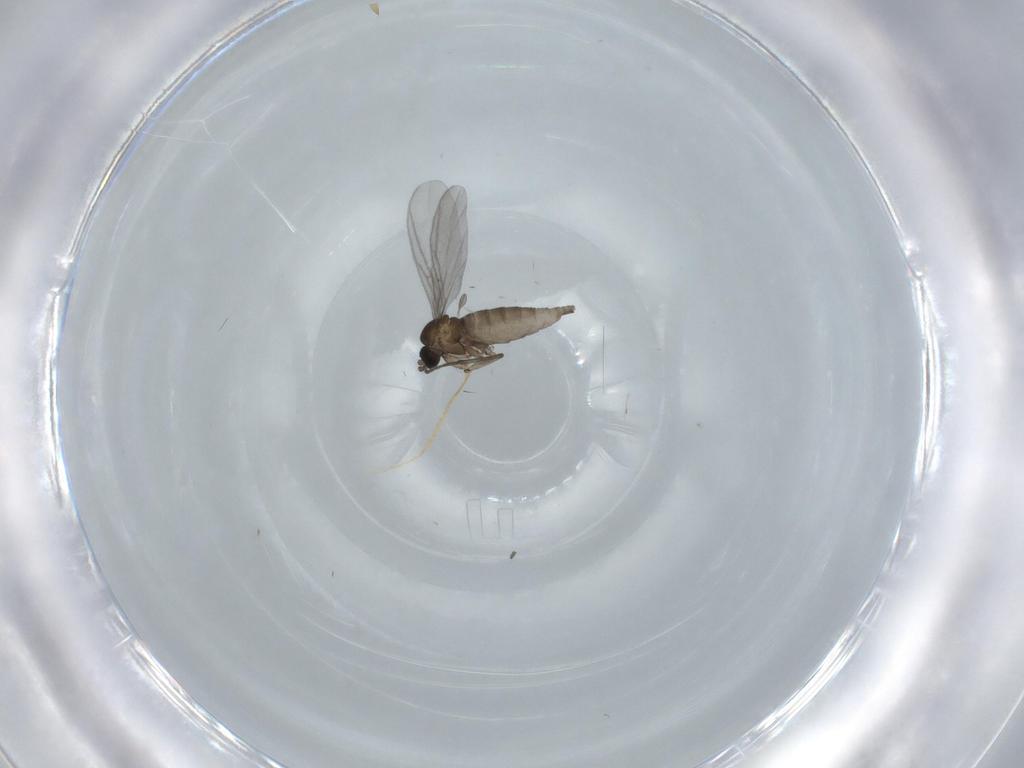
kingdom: Animalia
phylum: Arthropoda
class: Insecta
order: Diptera
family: Sciaridae
